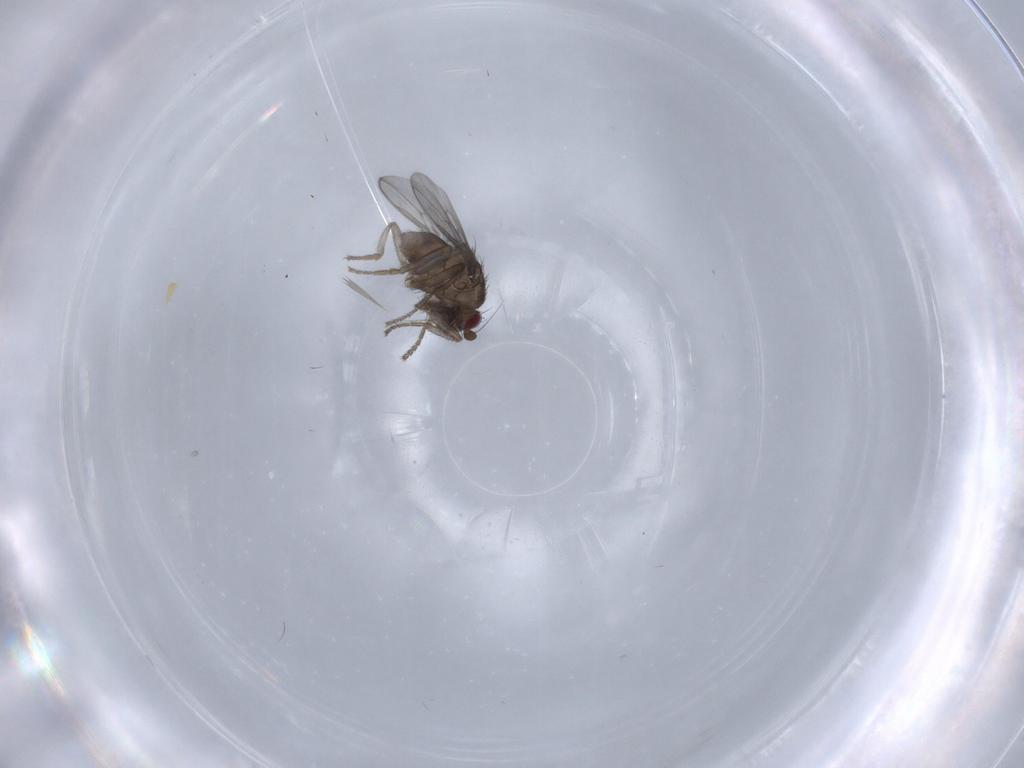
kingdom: Animalia
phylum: Arthropoda
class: Insecta
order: Diptera
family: Sphaeroceridae
